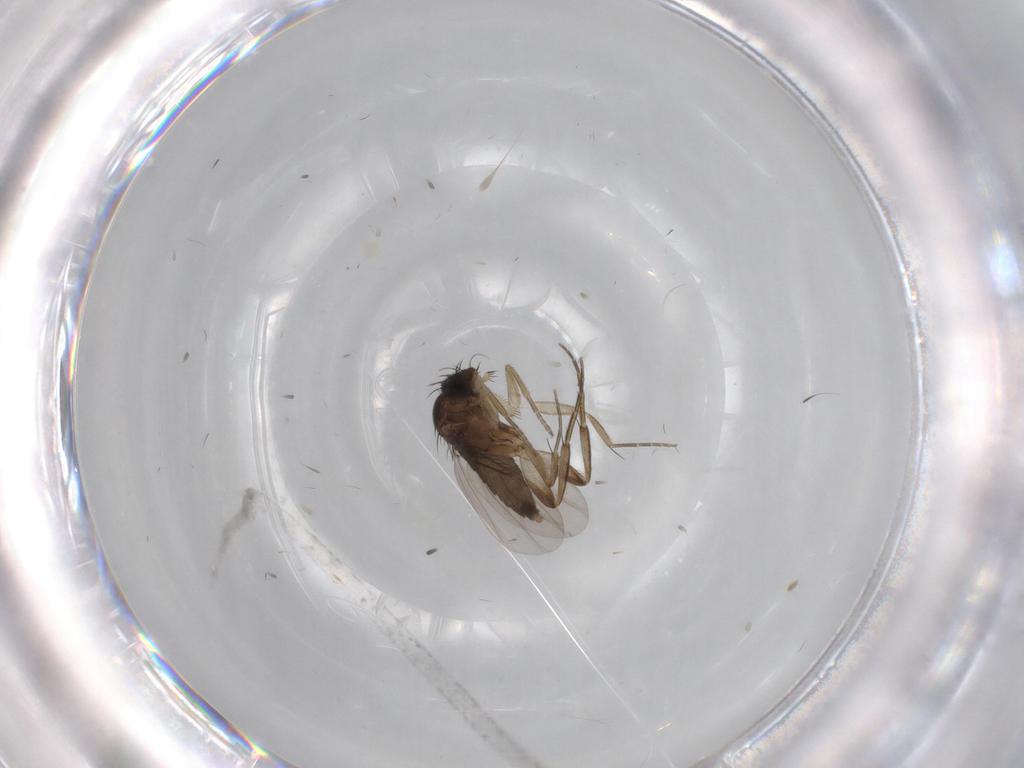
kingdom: Animalia
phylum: Arthropoda
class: Insecta
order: Diptera
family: Phoridae
